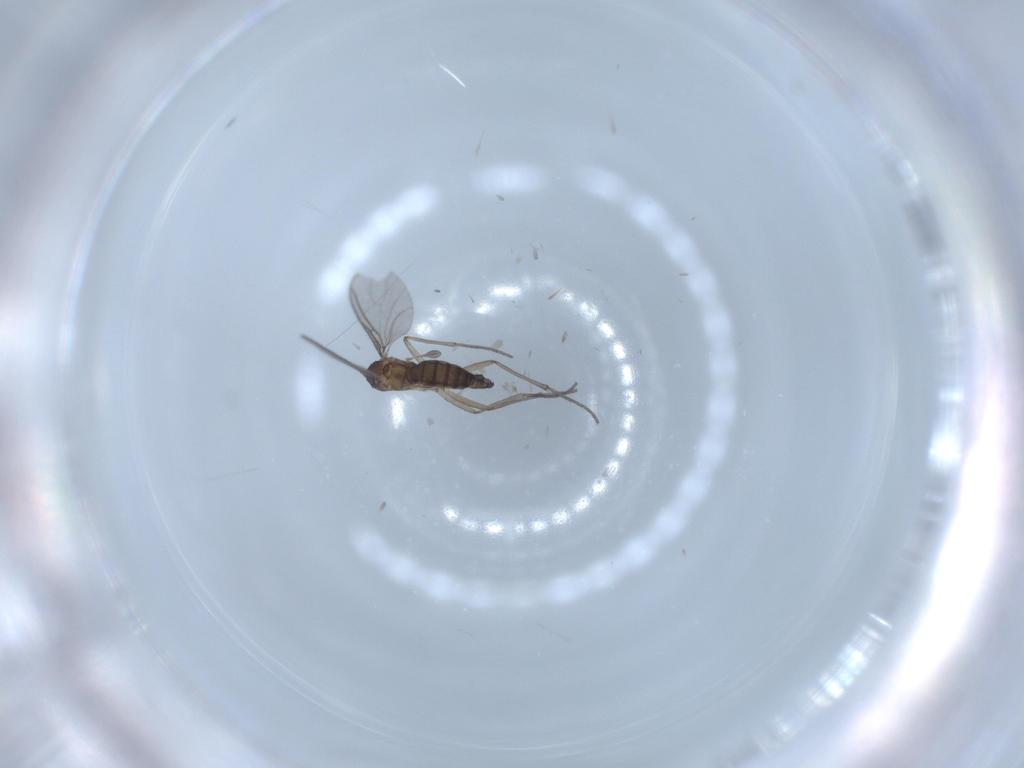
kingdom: Animalia
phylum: Arthropoda
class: Insecta
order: Diptera
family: Sciaridae
